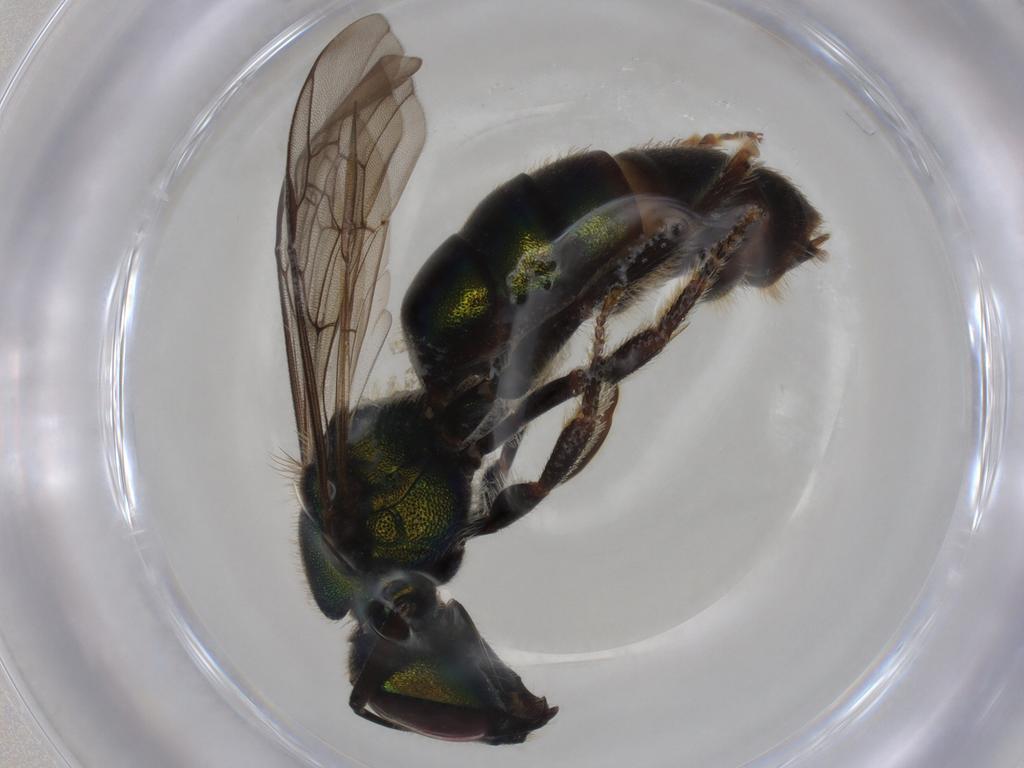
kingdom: Animalia
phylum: Arthropoda
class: Insecta
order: Hymenoptera
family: Halictidae
